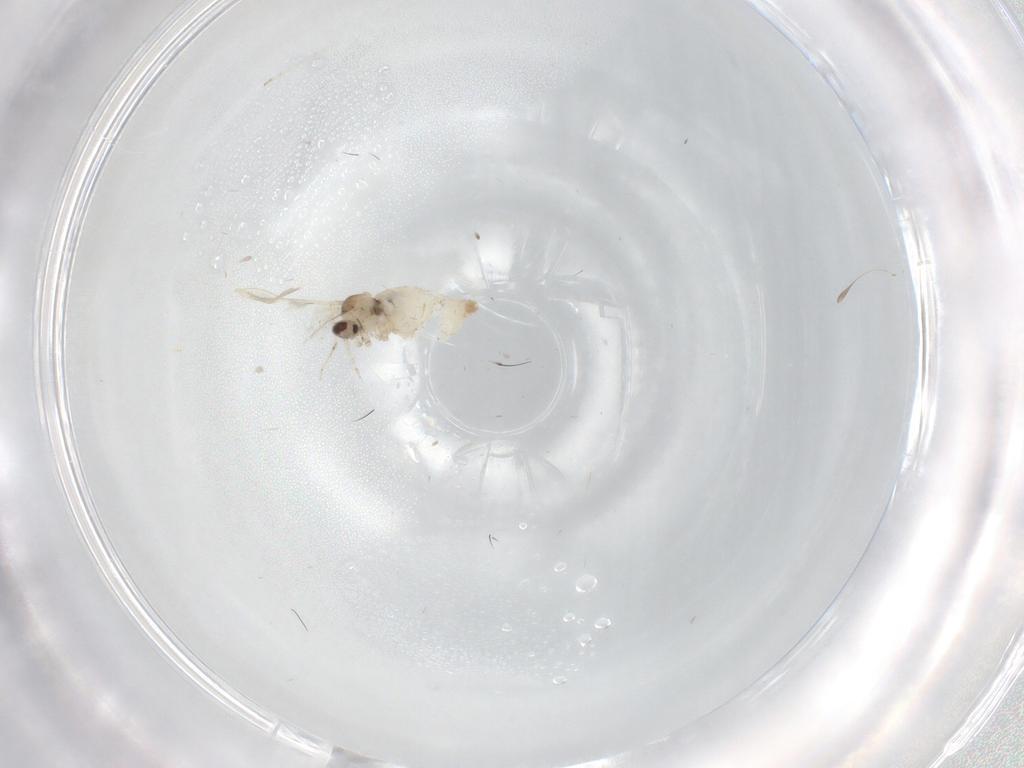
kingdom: Animalia
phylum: Arthropoda
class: Insecta
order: Diptera
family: Cecidomyiidae
